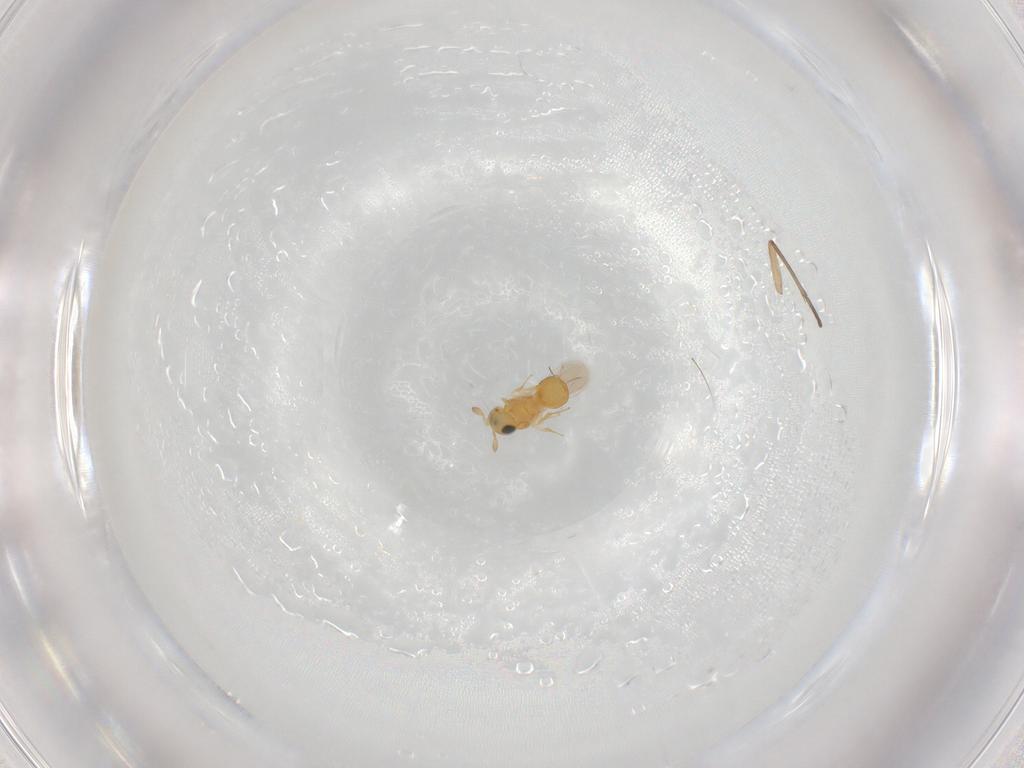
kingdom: Animalia
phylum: Arthropoda
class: Insecta
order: Hymenoptera
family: Scelionidae
